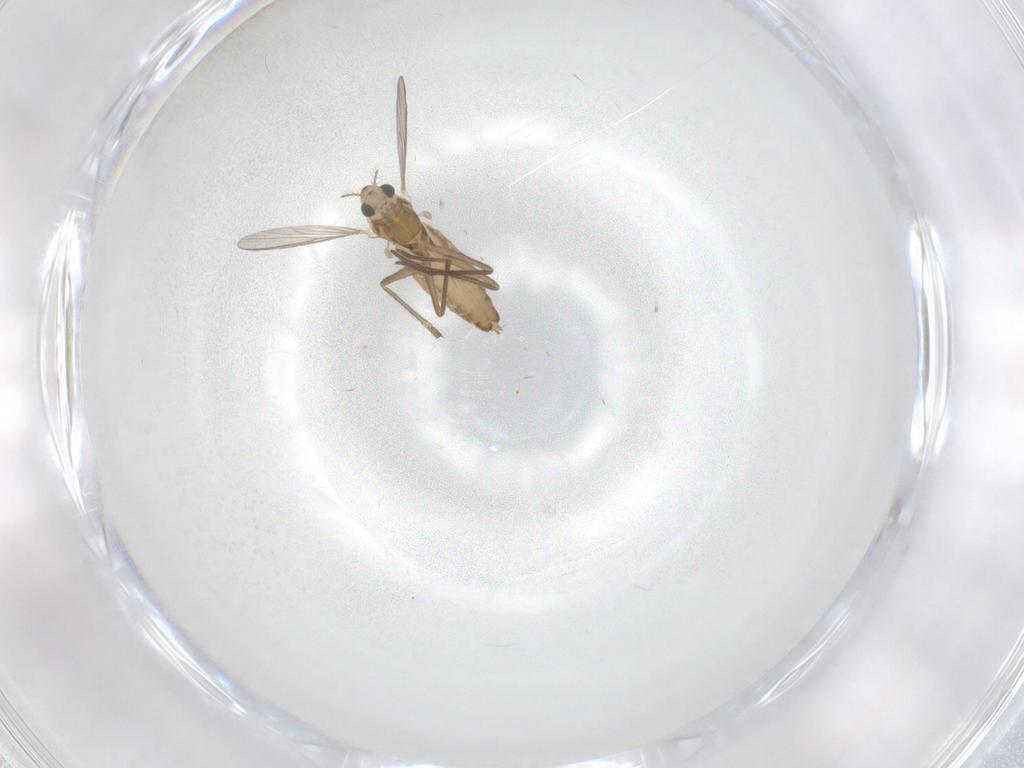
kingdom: Animalia
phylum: Arthropoda
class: Insecta
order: Diptera
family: Chironomidae
